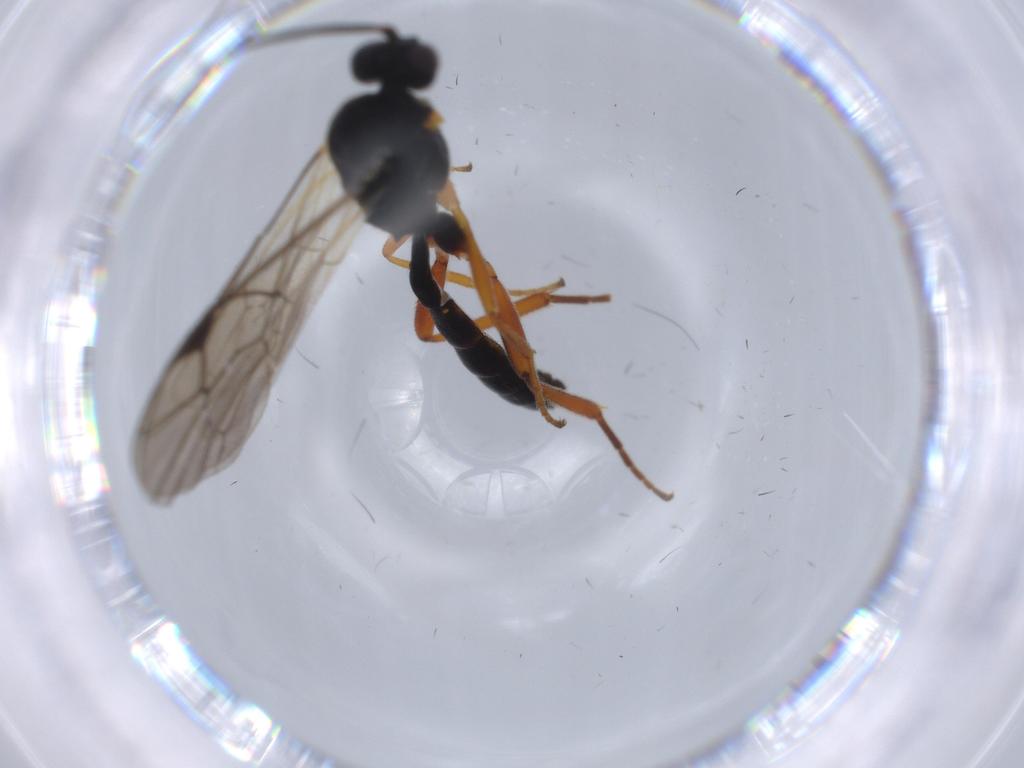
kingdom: Animalia
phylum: Arthropoda
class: Insecta
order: Hymenoptera
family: Ichneumonidae
